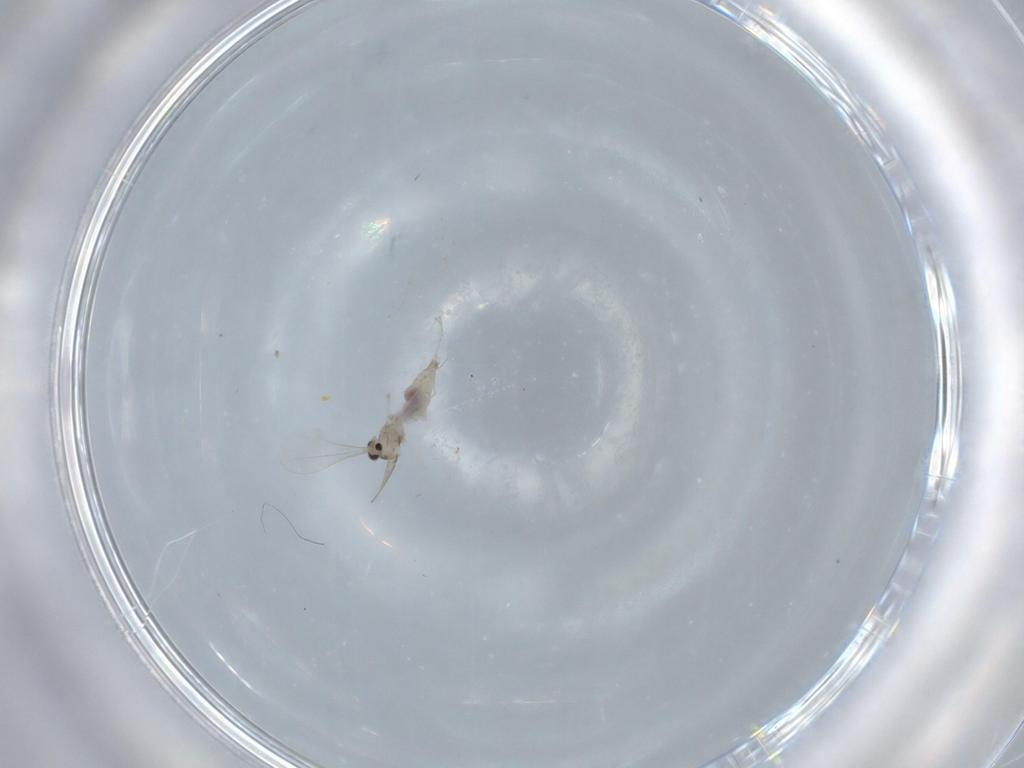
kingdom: Animalia
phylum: Arthropoda
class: Insecta
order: Diptera
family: Cecidomyiidae
